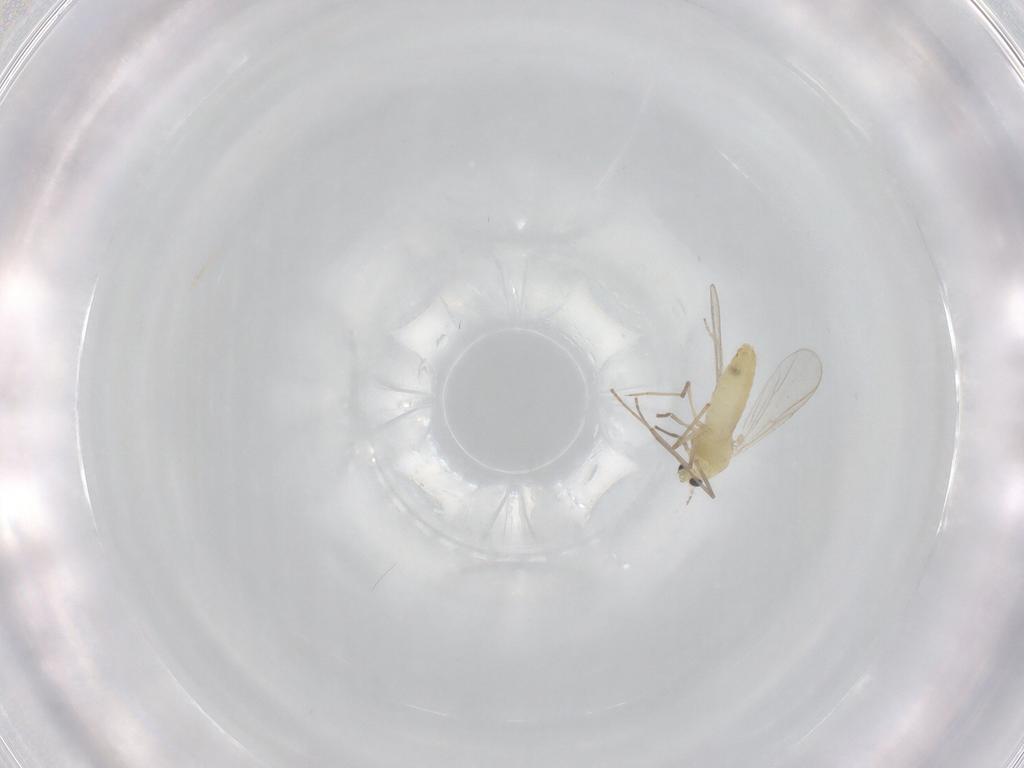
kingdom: Animalia
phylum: Arthropoda
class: Insecta
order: Diptera
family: Chironomidae
